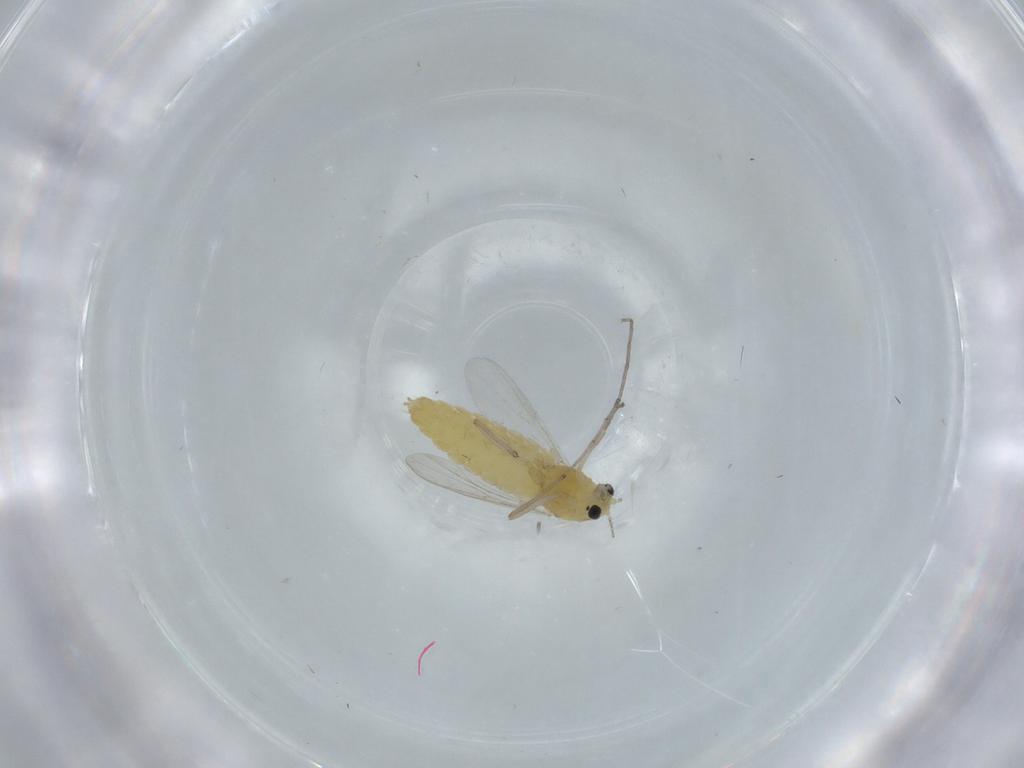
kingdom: Animalia
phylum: Arthropoda
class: Insecta
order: Diptera
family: Chironomidae
